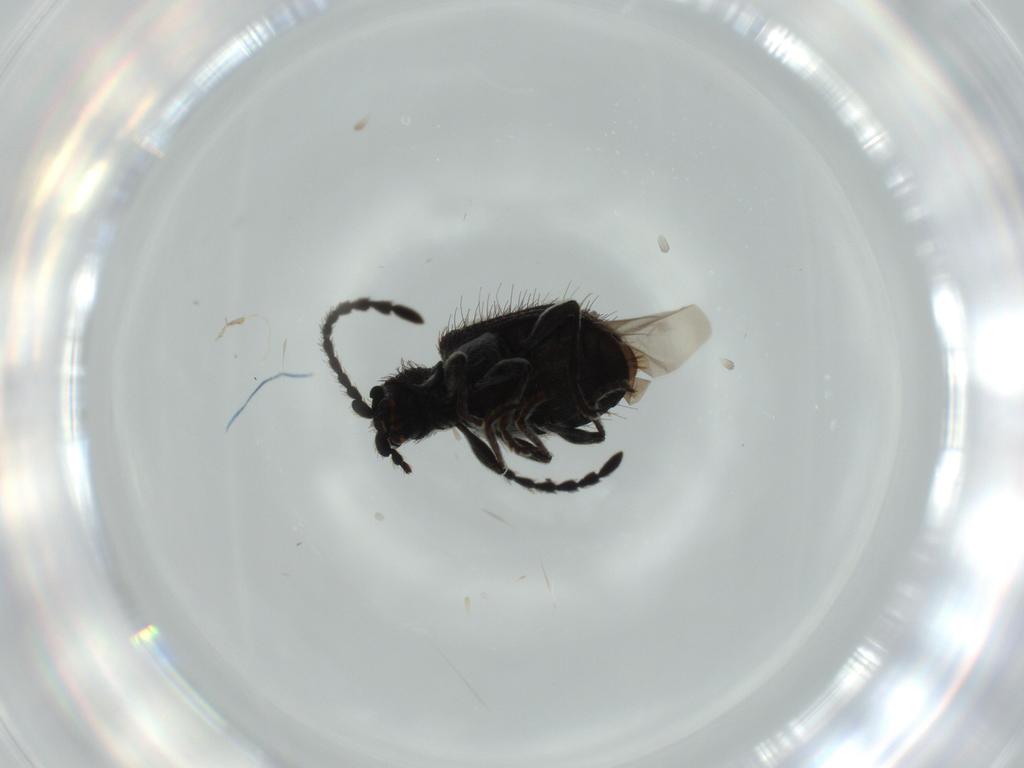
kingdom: Animalia
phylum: Arthropoda
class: Insecta
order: Coleoptera
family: Ptinidae
